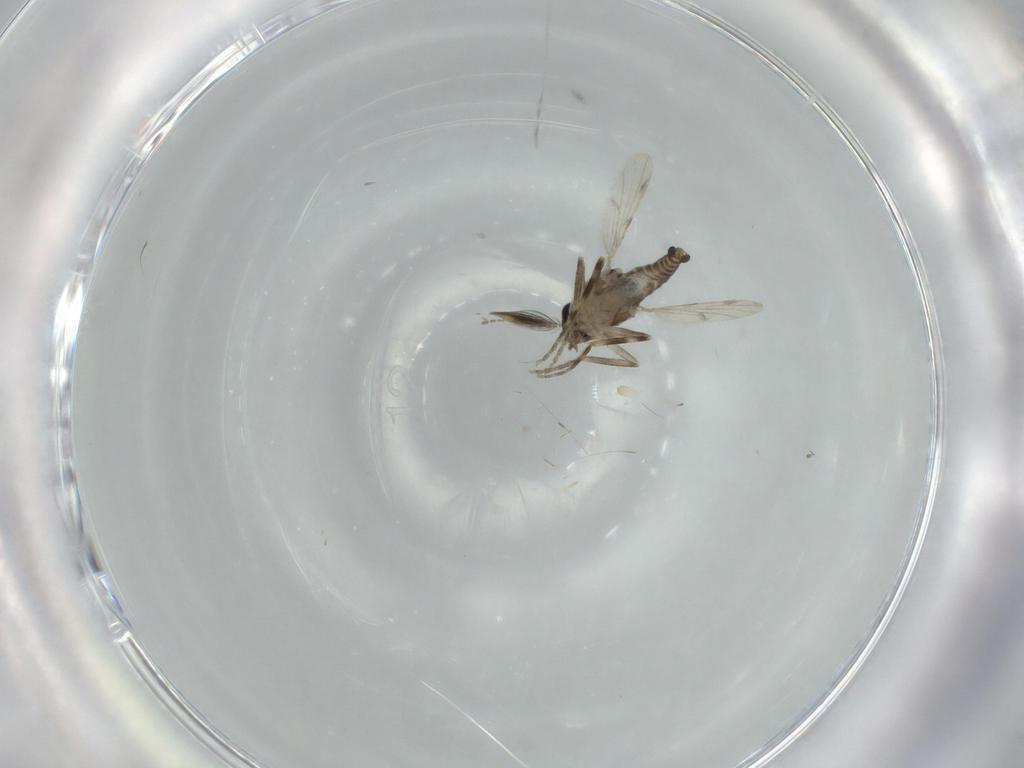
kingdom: Animalia
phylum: Arthropoda
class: Insecta
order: Diptera
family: Ceratopogonidae
